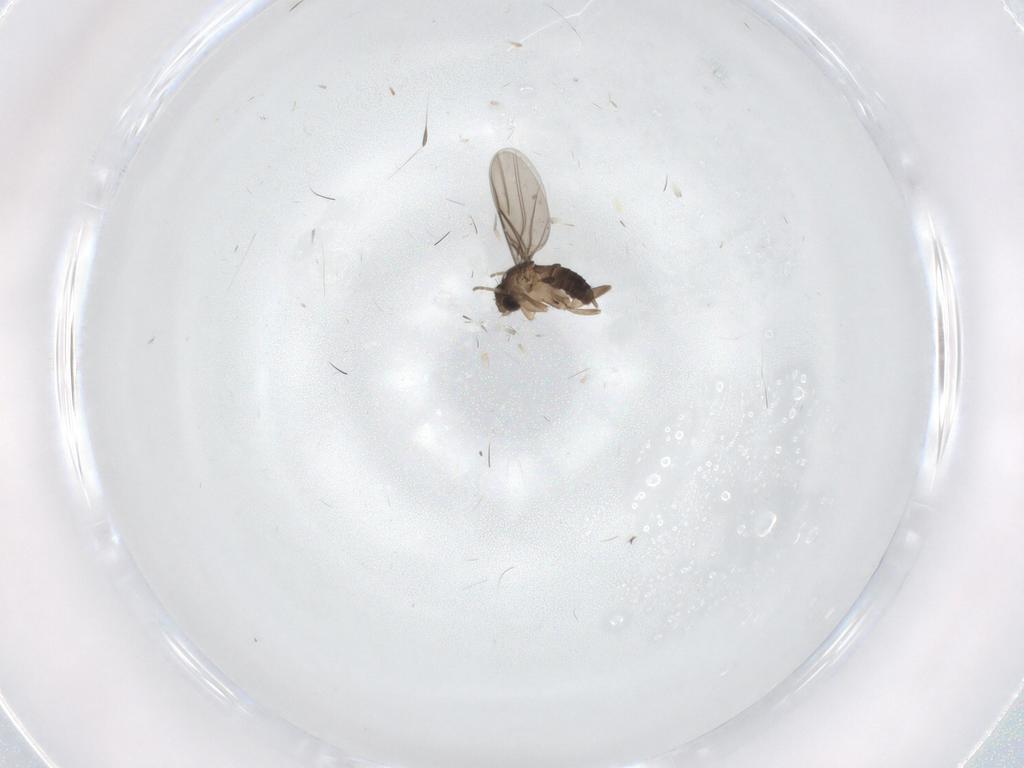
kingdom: Animalia
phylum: Arthropoda
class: Insecta
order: Diptera
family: Phoridae
